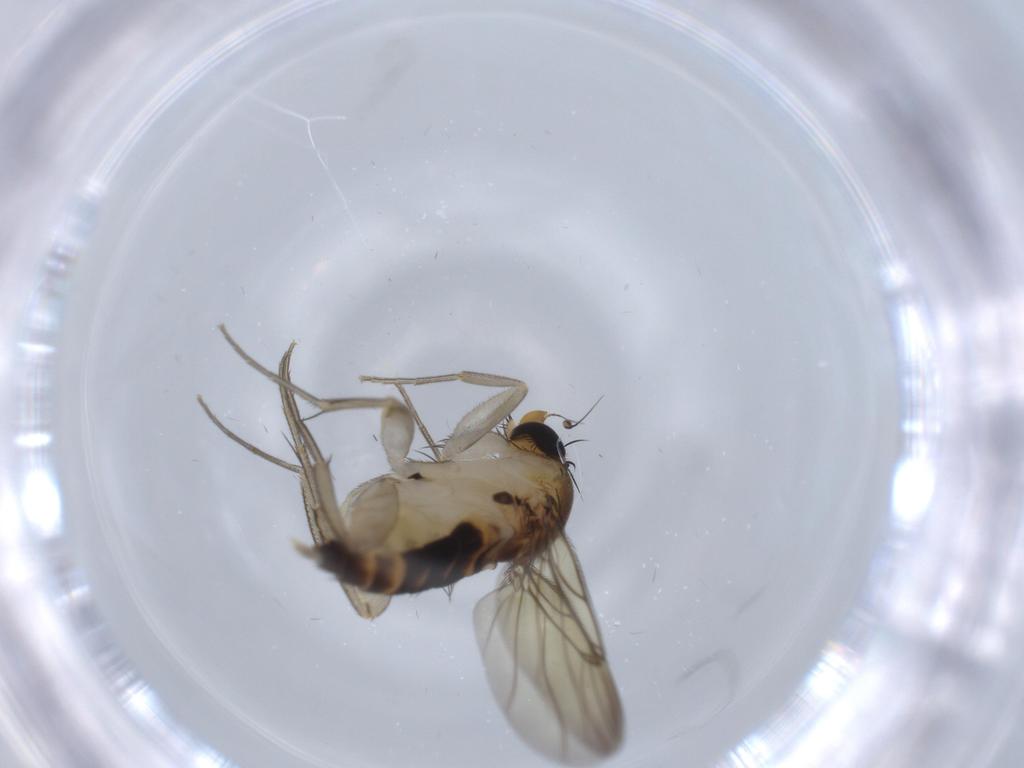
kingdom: Animalia
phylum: Arthropoda
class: Insecta
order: Diptera
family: Phoridae
